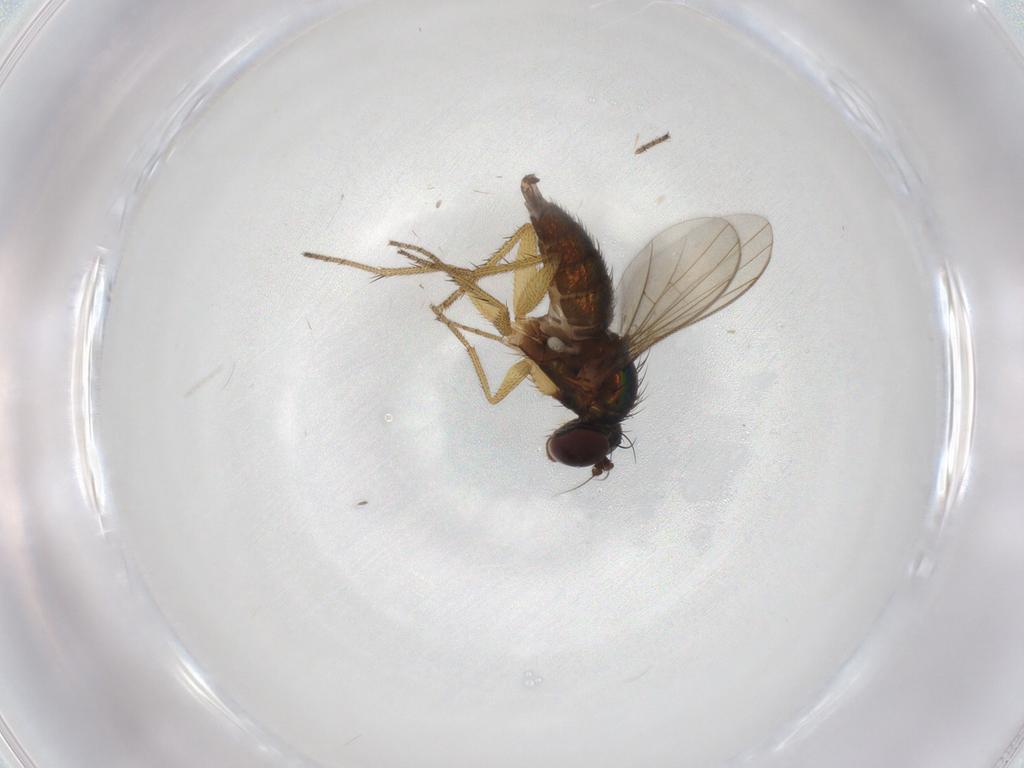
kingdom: Animalia
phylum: Arthropoda
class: Insecta
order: Diptera
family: Dolichopodidae
